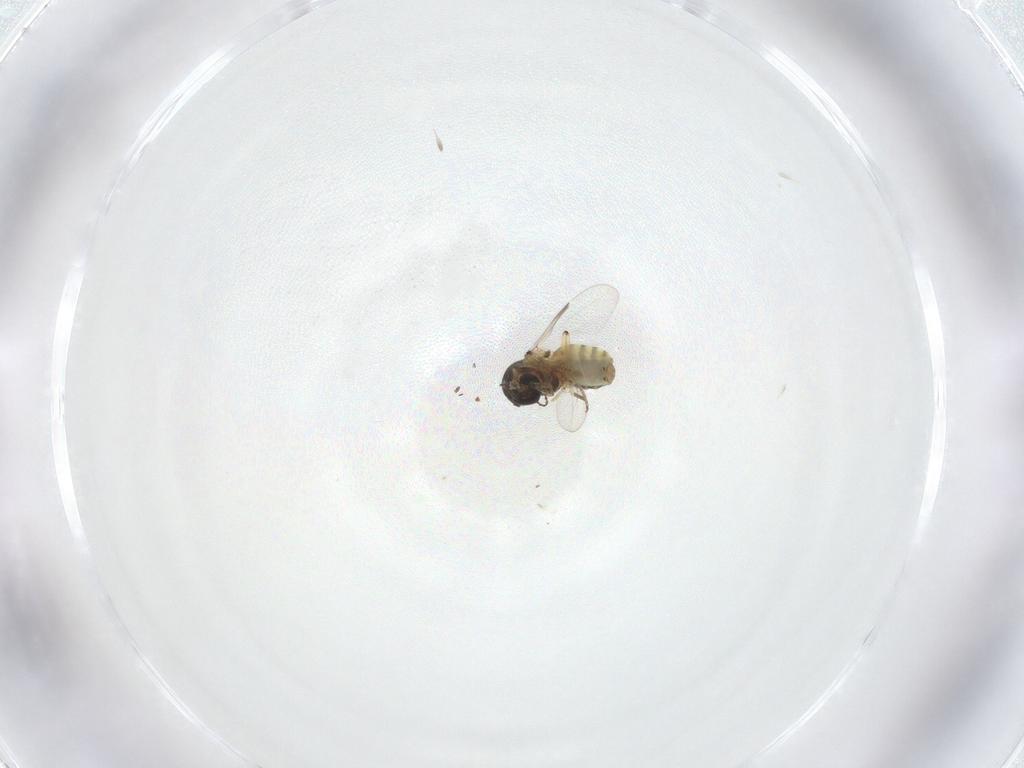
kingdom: Animalia
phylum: Arthropoda
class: Insecta
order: Diptera
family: Ceratopogonidae
